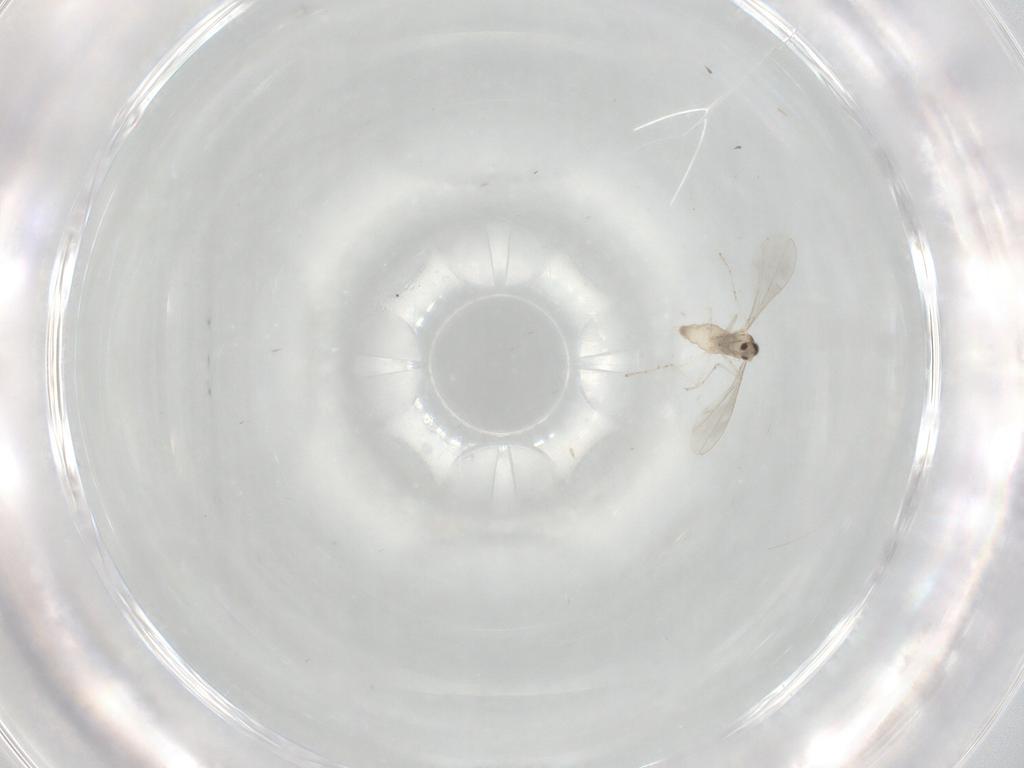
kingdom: Animalia
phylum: Arthropoda
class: Insecta
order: Diptera
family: Cecidomyiidae
